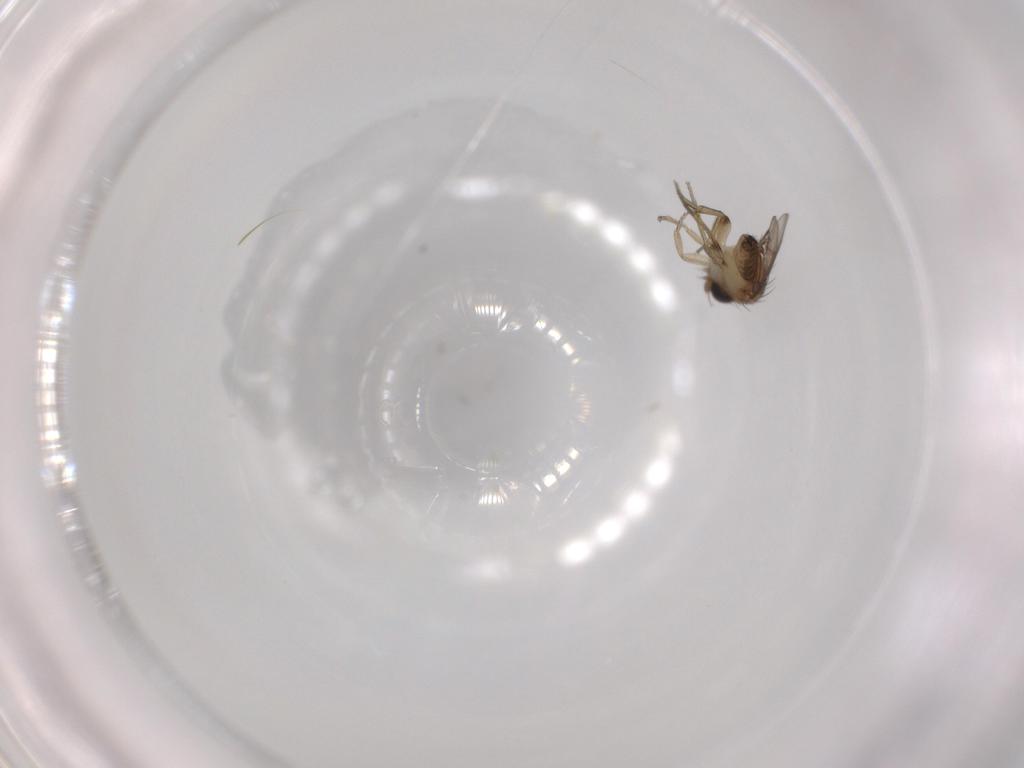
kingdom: Animalia
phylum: Arthropoda
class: Insecta
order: Diptera
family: Phoridae
